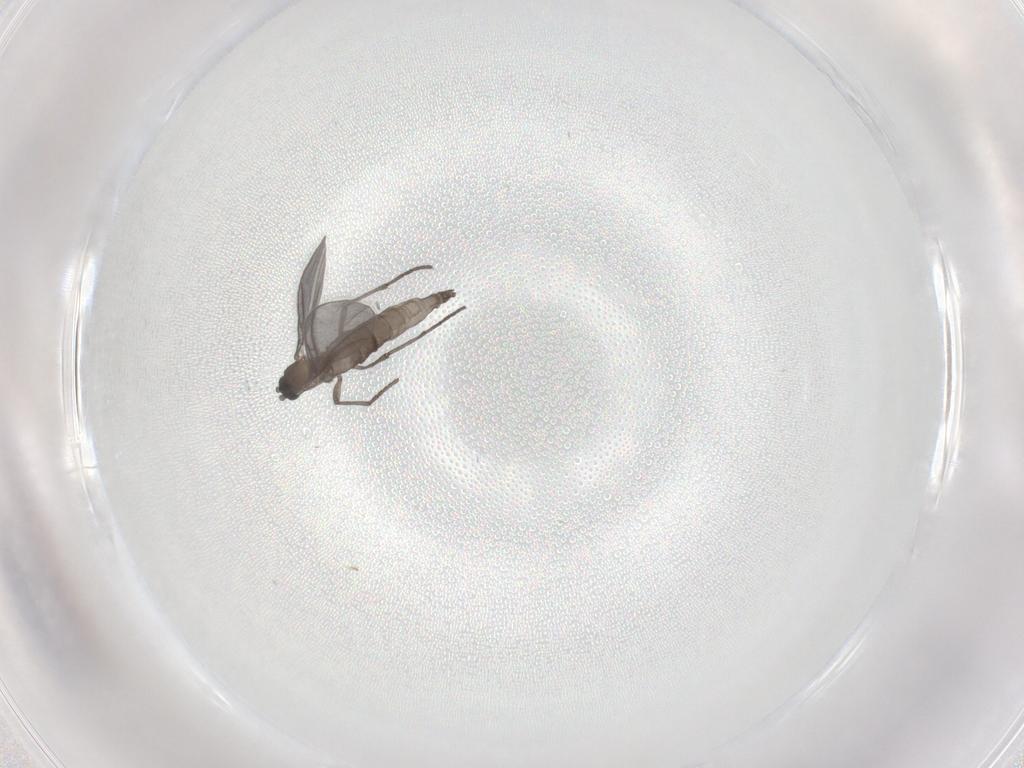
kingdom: Animalia
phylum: Arthropoda
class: Insecta
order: Diptera
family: Sciaridae
